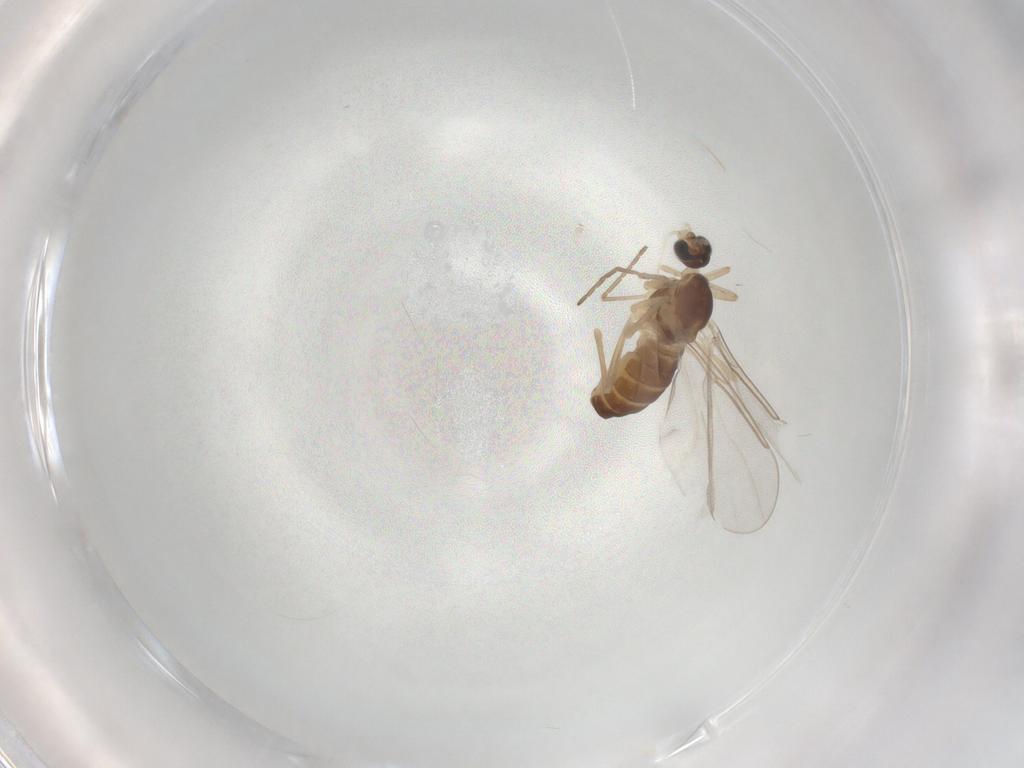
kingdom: Animalia
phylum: Arthropoda
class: Insecta
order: Diptera
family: Cecidomyiidae
